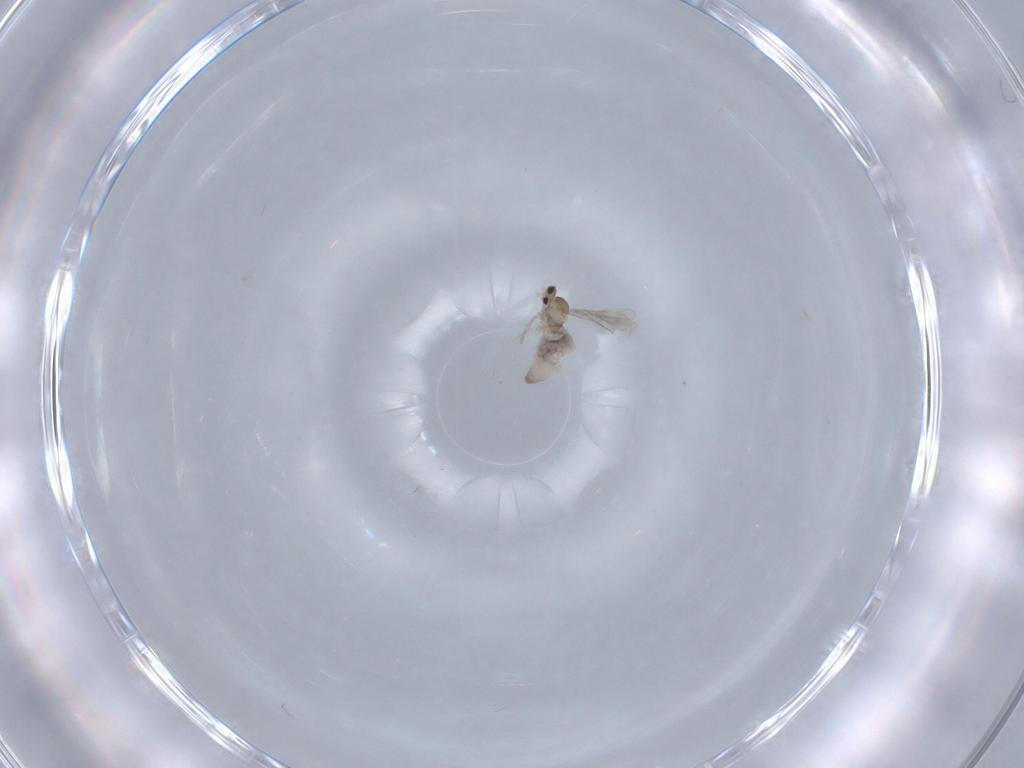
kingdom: Animalia
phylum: Arthropoda
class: Insecta
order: Diptera
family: Cecidomyiidae
